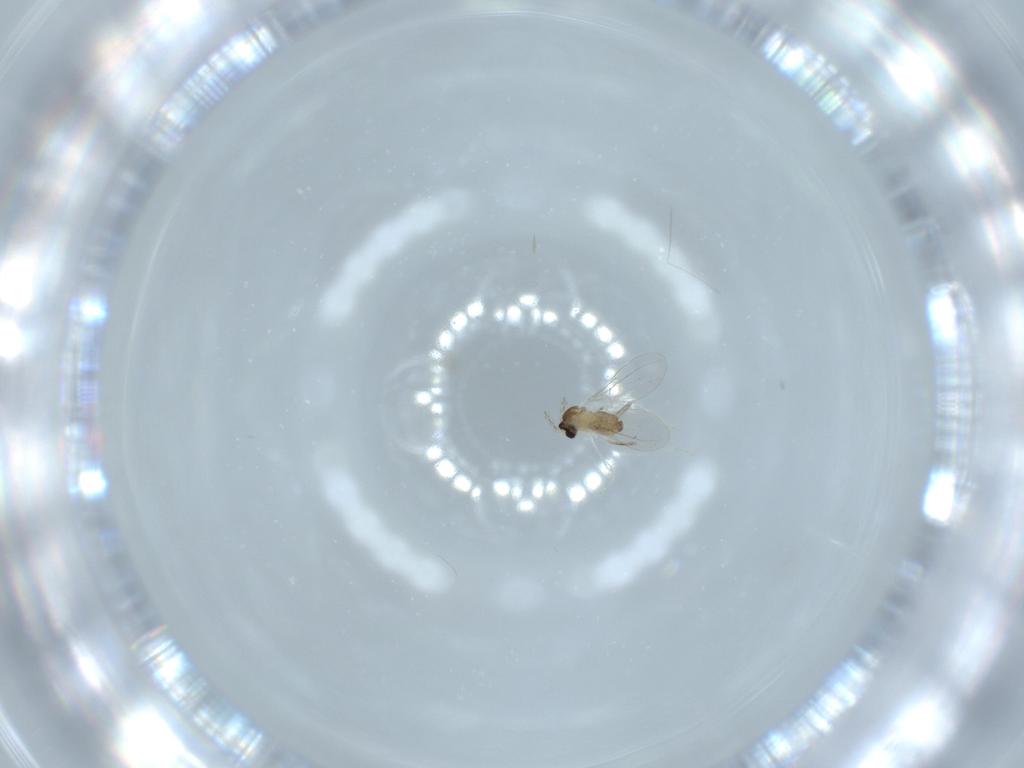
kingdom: Animalia
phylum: Arthropoda
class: Insecta
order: Diptera
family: Cecidomyiidae
